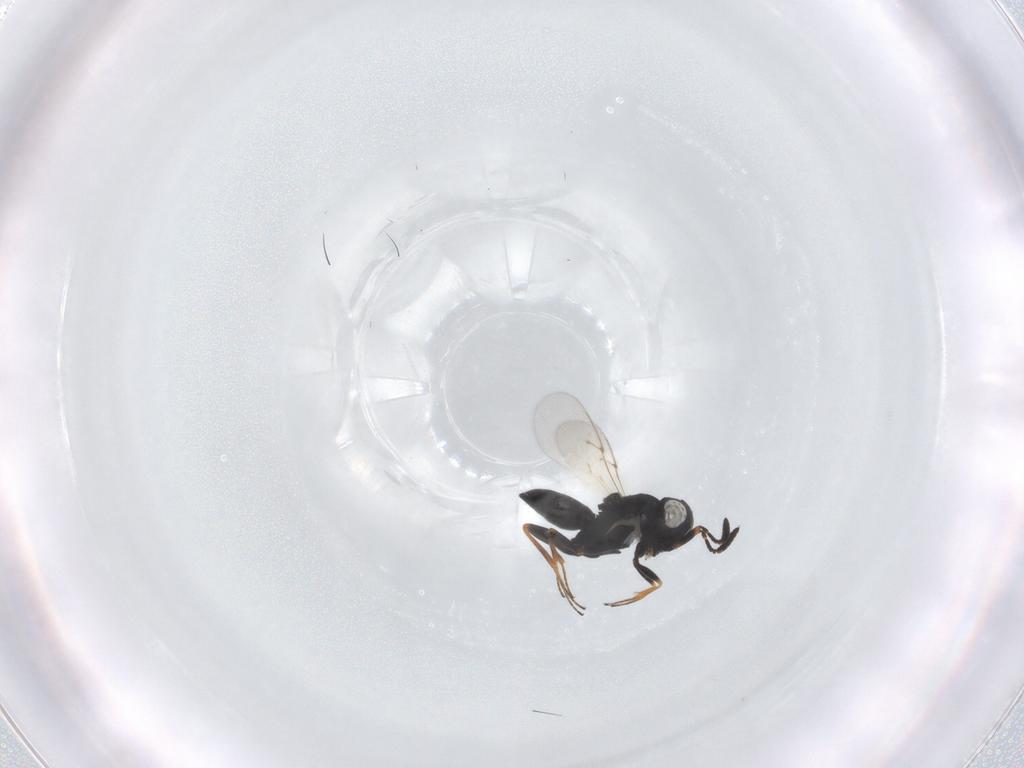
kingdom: Animalia
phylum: Arthropoda
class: Insecta
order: Hymenoptera
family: Scelionidae
